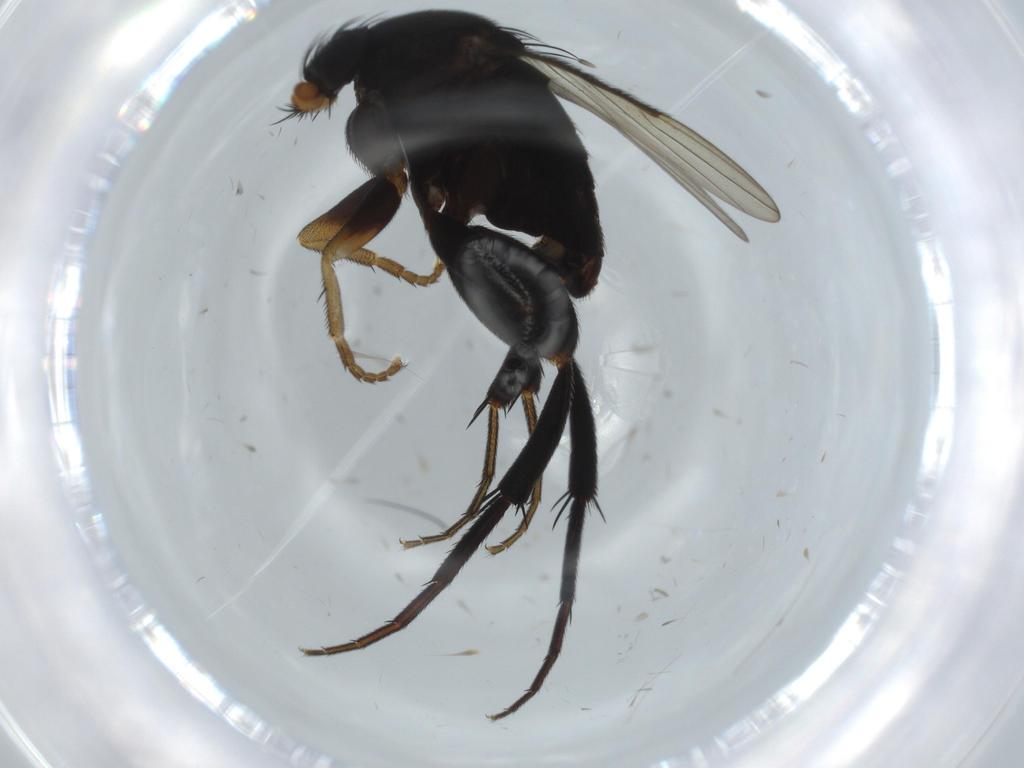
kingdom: Animalia
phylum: Arthropoda
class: Insecta
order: Diptera
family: Phoridae
